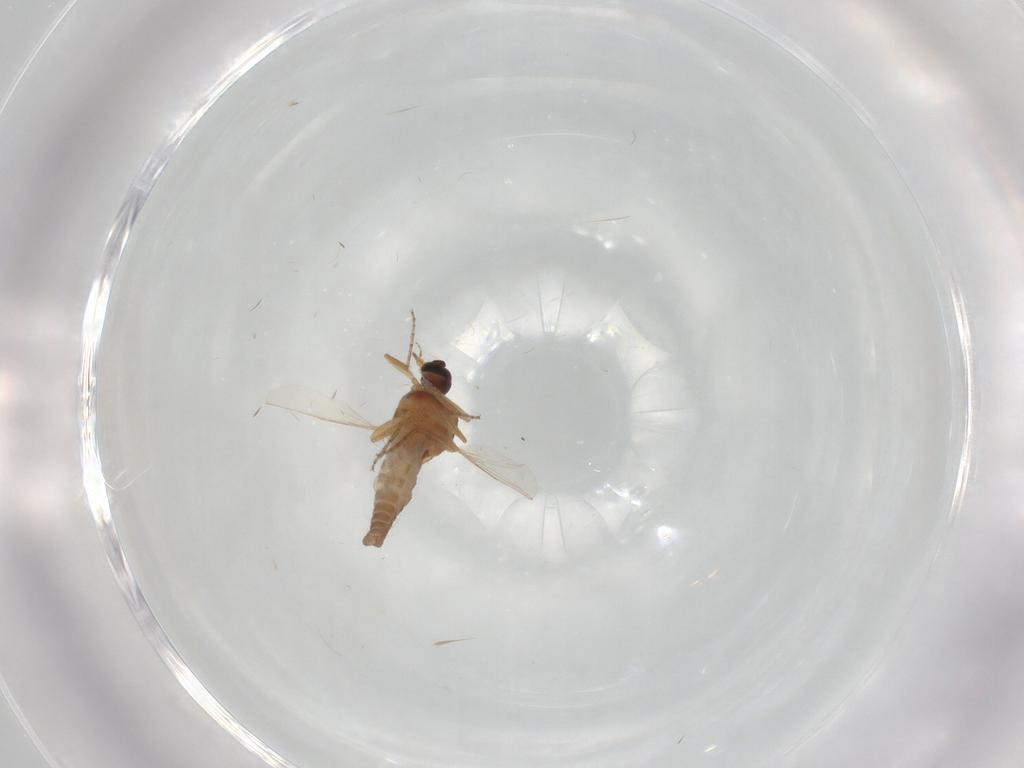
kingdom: Animalia
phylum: Arthropoda
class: Insecta
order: Diptera
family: Ceratopogonidae
